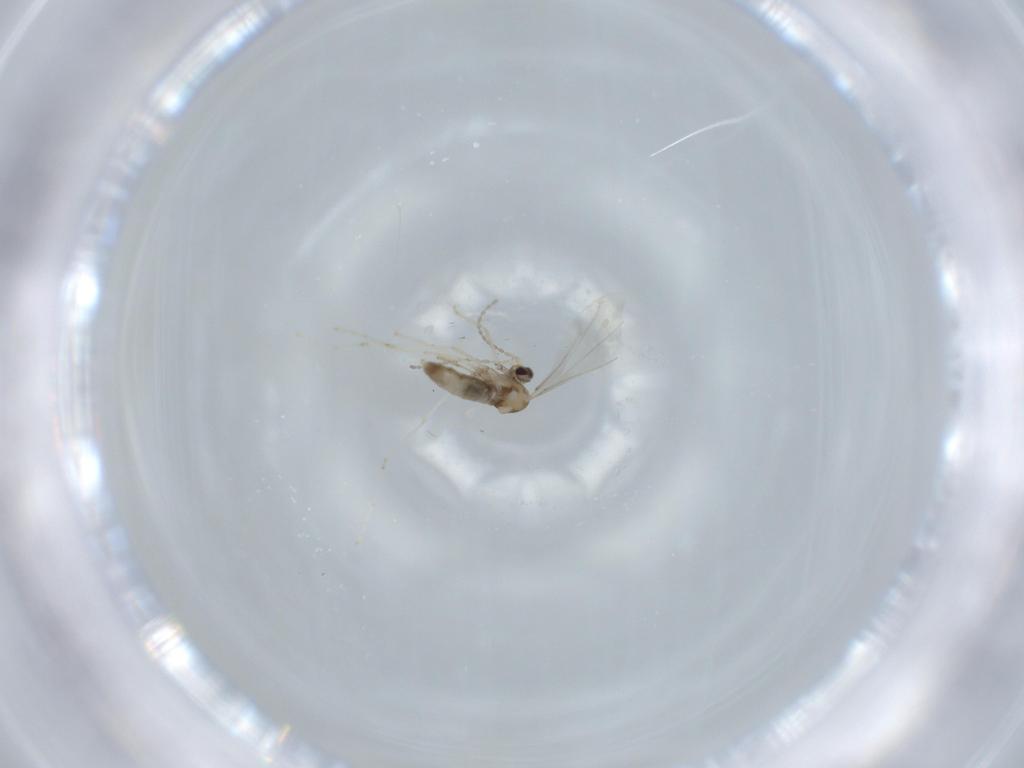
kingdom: Animalia
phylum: Arthropoda
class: Insecta
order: Diptera
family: Cecidomyiidae
